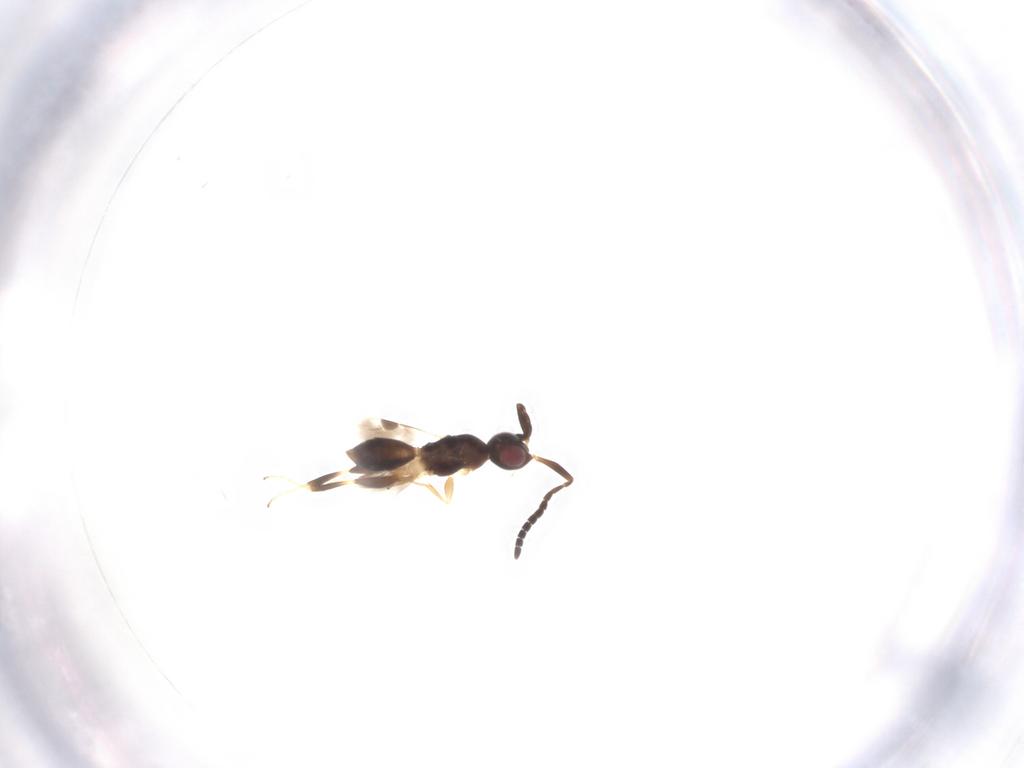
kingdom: Animalia
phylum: Arthropoda
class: Insecta
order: Hymenoptera
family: Braconidae
